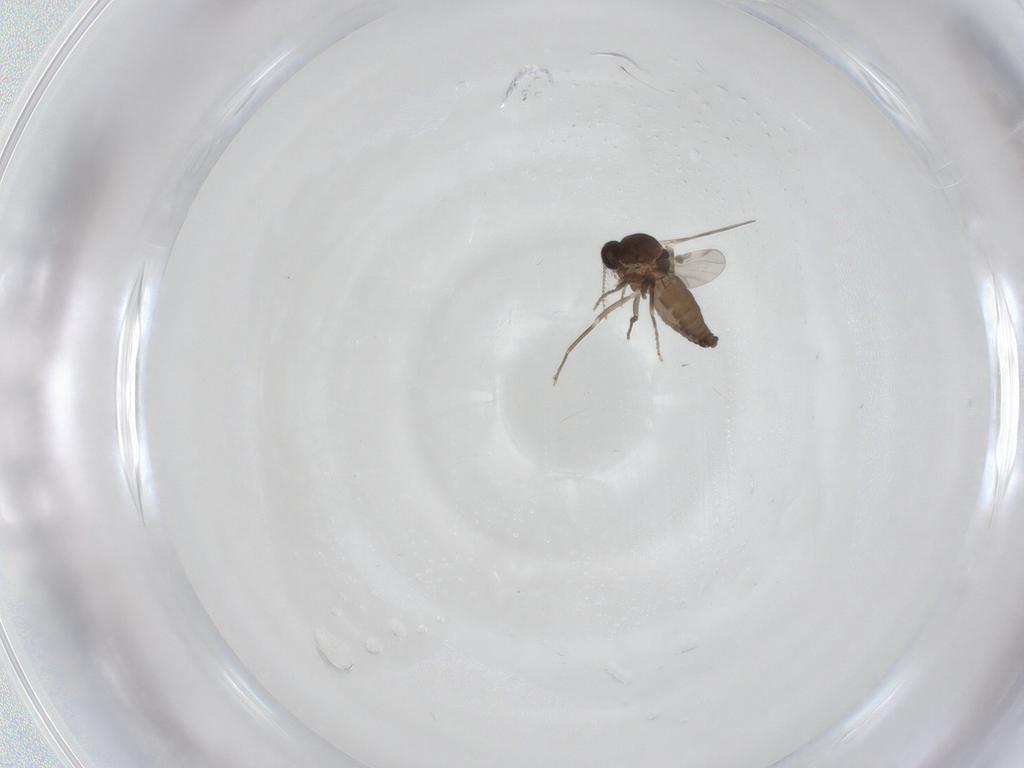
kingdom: Animalia
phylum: Arthropoda
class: Insecta
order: Diptera
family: Ceratopogonidae
